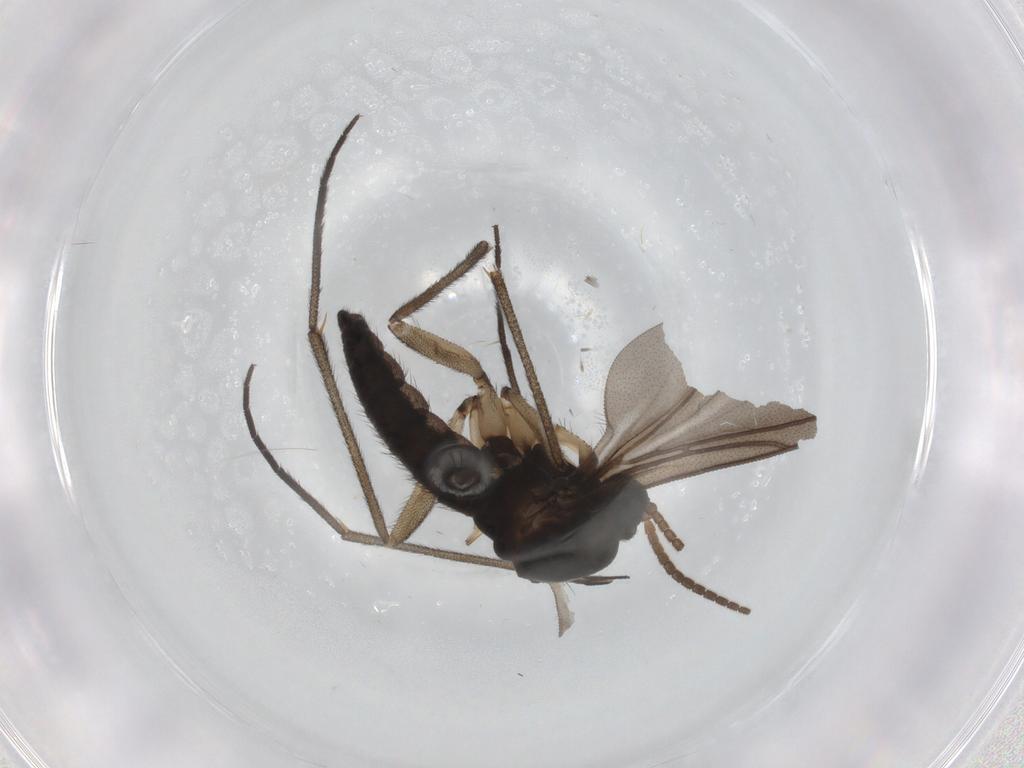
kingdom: Animalia
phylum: Arthropoda
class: Insecta
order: Diptera
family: Sciaridae
